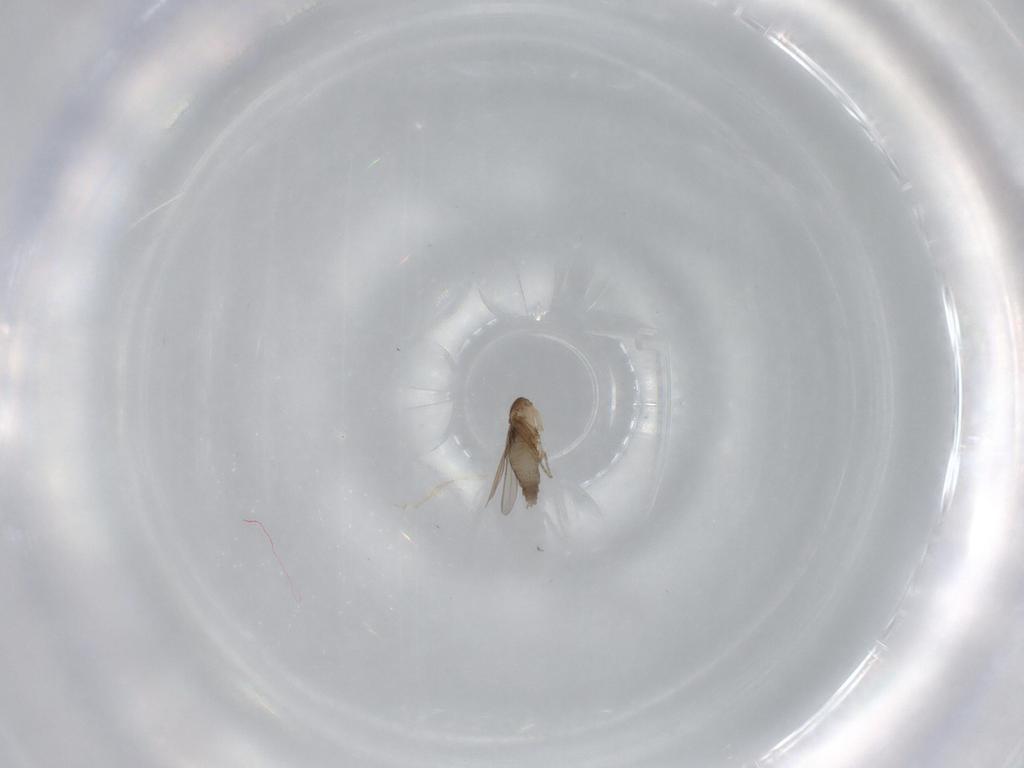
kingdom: Animalia
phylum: Arthropoda
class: Insecta
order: Diptera
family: Phoridae
